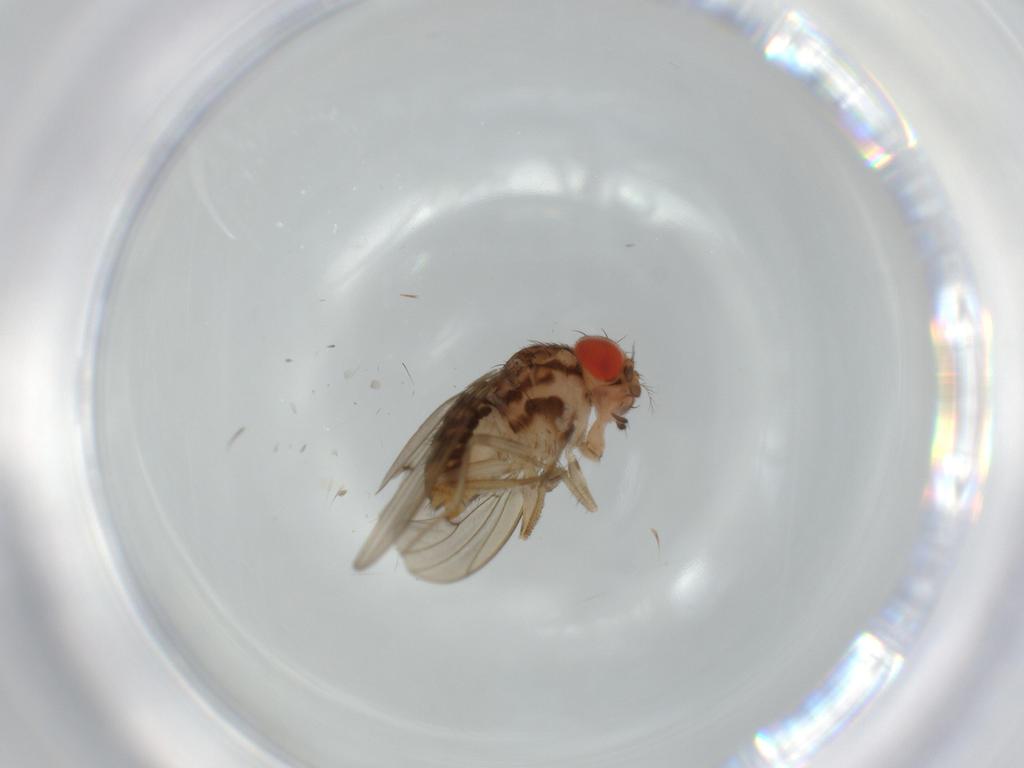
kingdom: Animalia
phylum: Arthropoda
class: Insecta
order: Diptera
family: Drosophilidae
